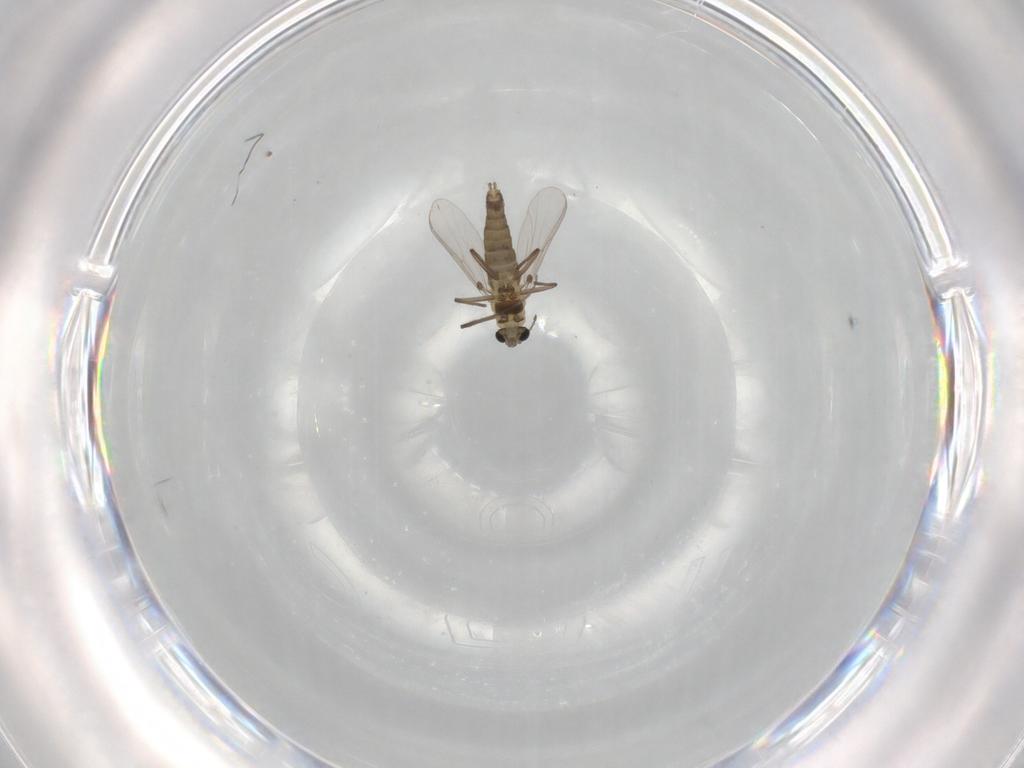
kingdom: Animalia
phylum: Arthropoda
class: Insecta
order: Diptera
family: Chironomidae
